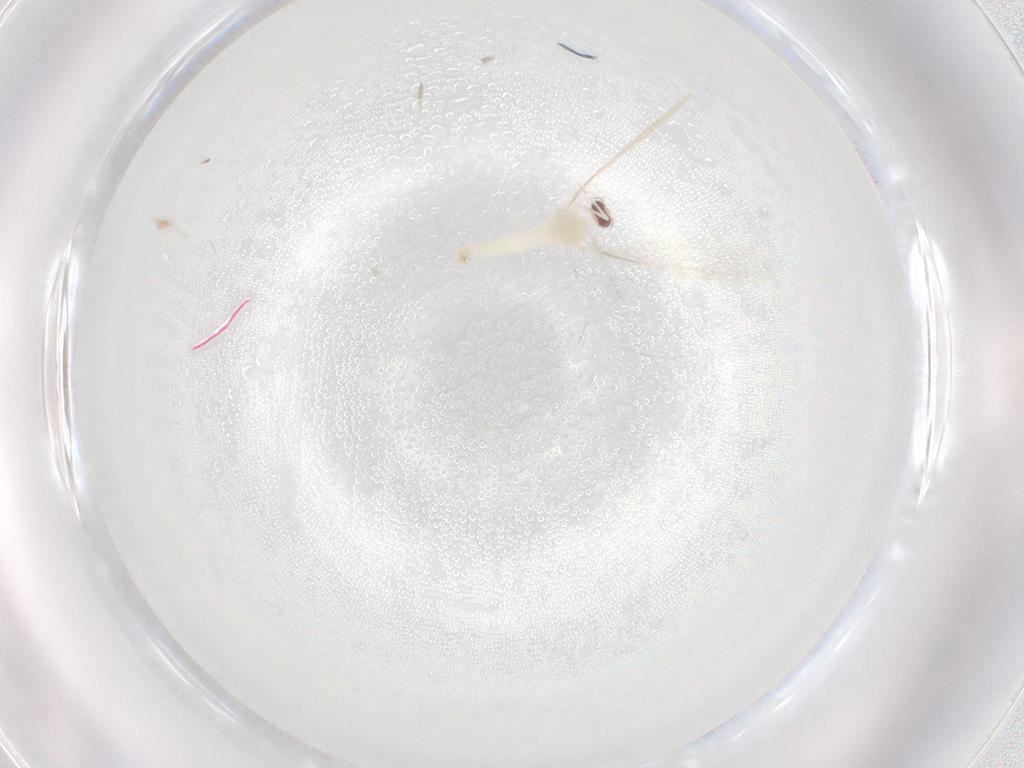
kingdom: Animalia
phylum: Arthropoda
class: Insecta
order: Diptera
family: Cecidomyiidae
